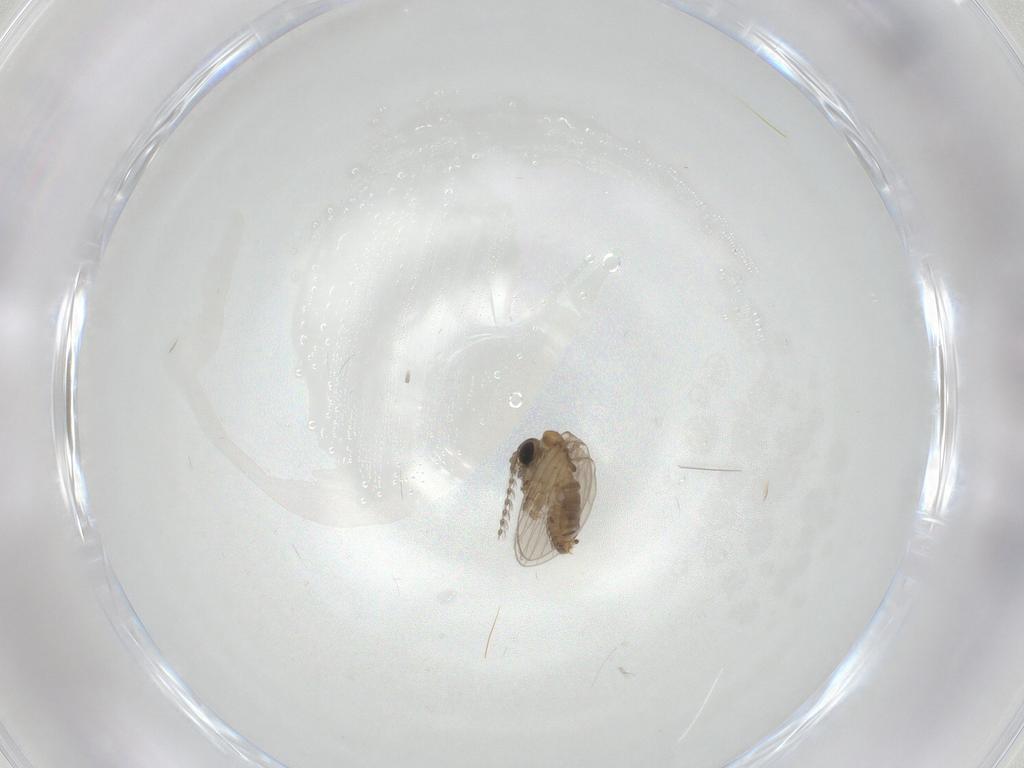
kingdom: Animalia
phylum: Arthropoda
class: Insecta
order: Diptera
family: Psychodidae
